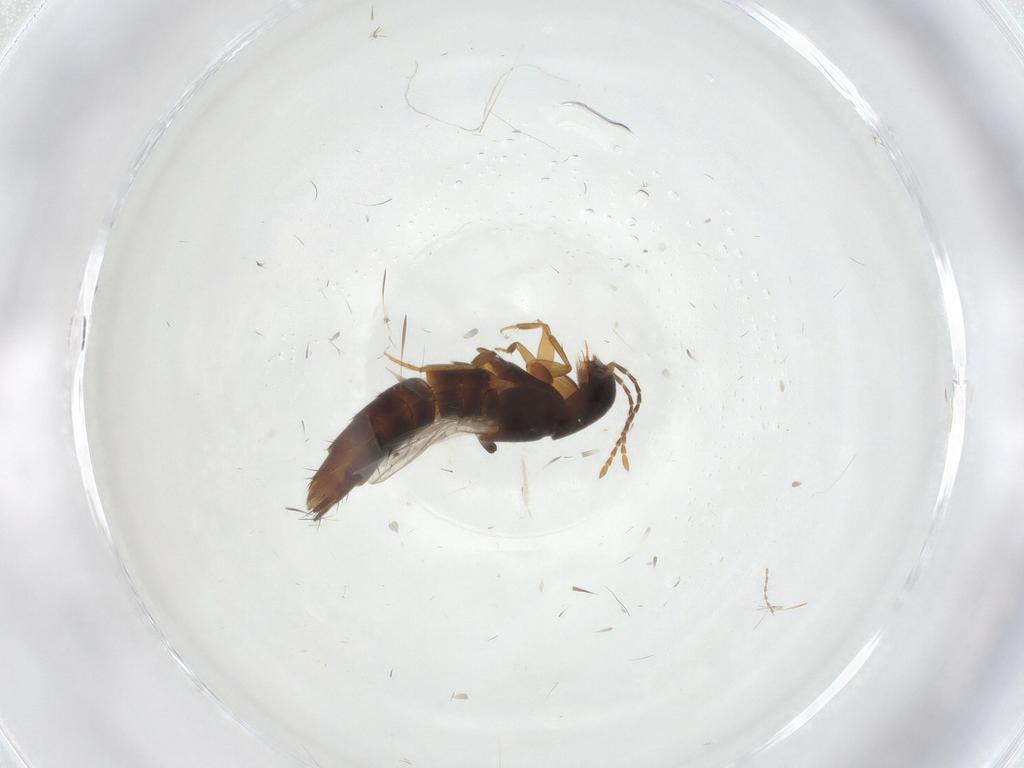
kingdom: Animalia
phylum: Arthropoda
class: Insecta
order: Coleoptera
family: Staphylinidae
